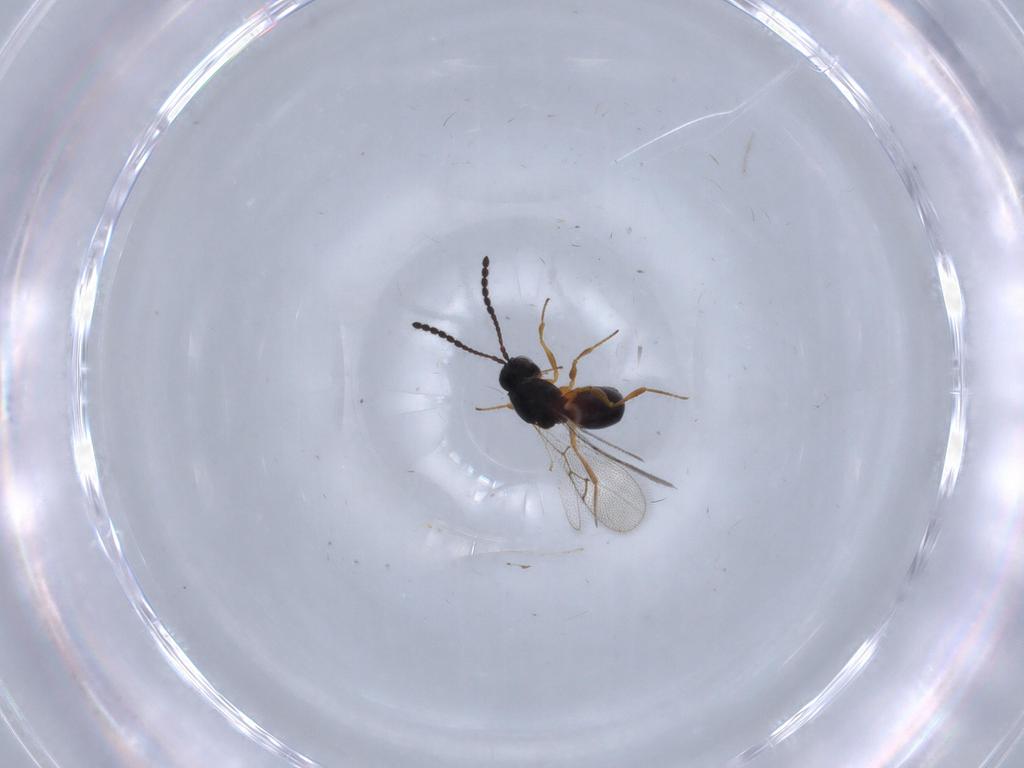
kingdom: Animalia
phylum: Arthropoda
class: Insecta
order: Hymenoptera
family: Figitidae
